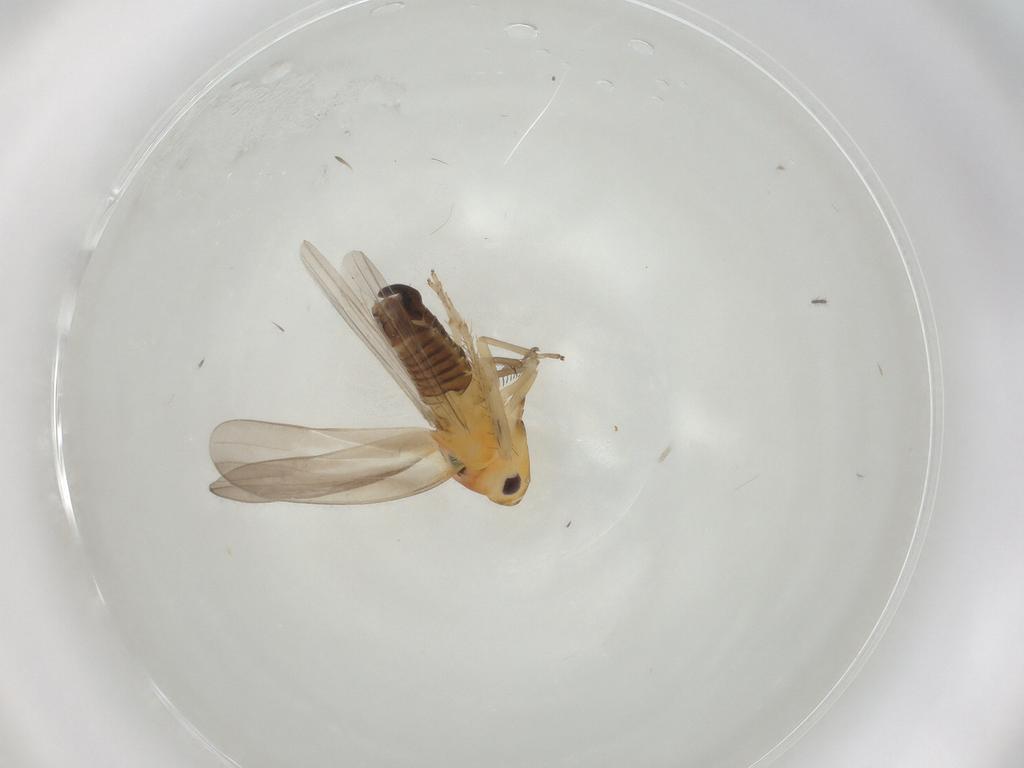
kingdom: Animalia
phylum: Arthropoda
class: Insecta
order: Hemiptera
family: Cicadellidae
